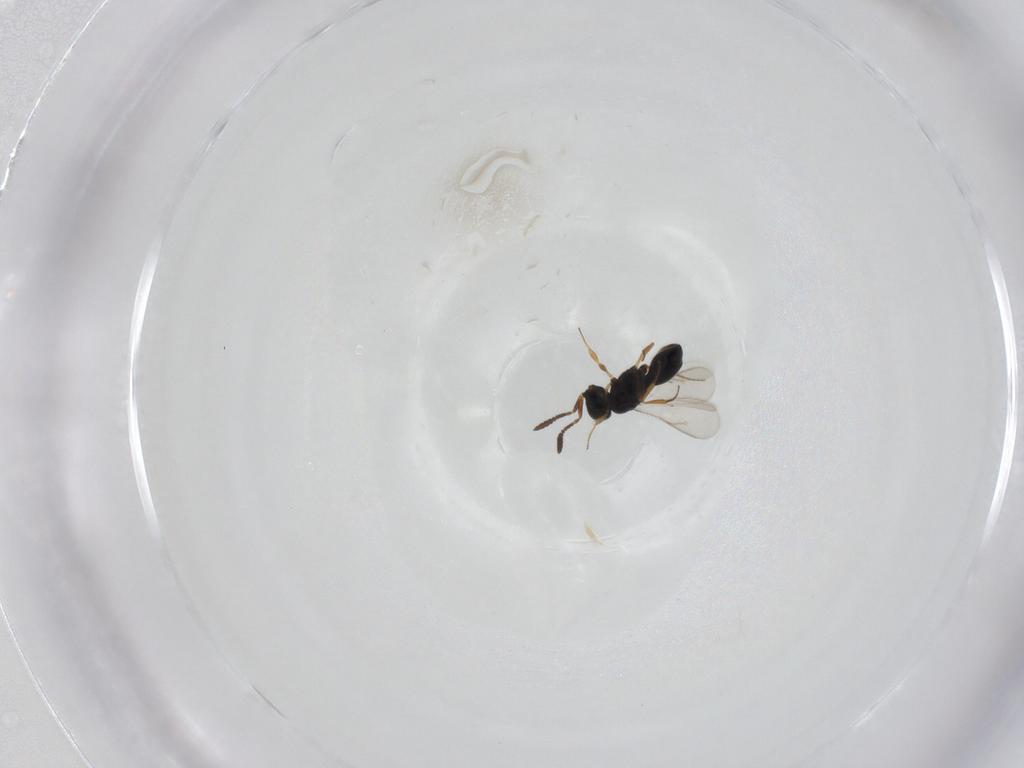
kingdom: Animalia
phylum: Arthropoda
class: Insecta
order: Hymenoptera
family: Scelionidae
